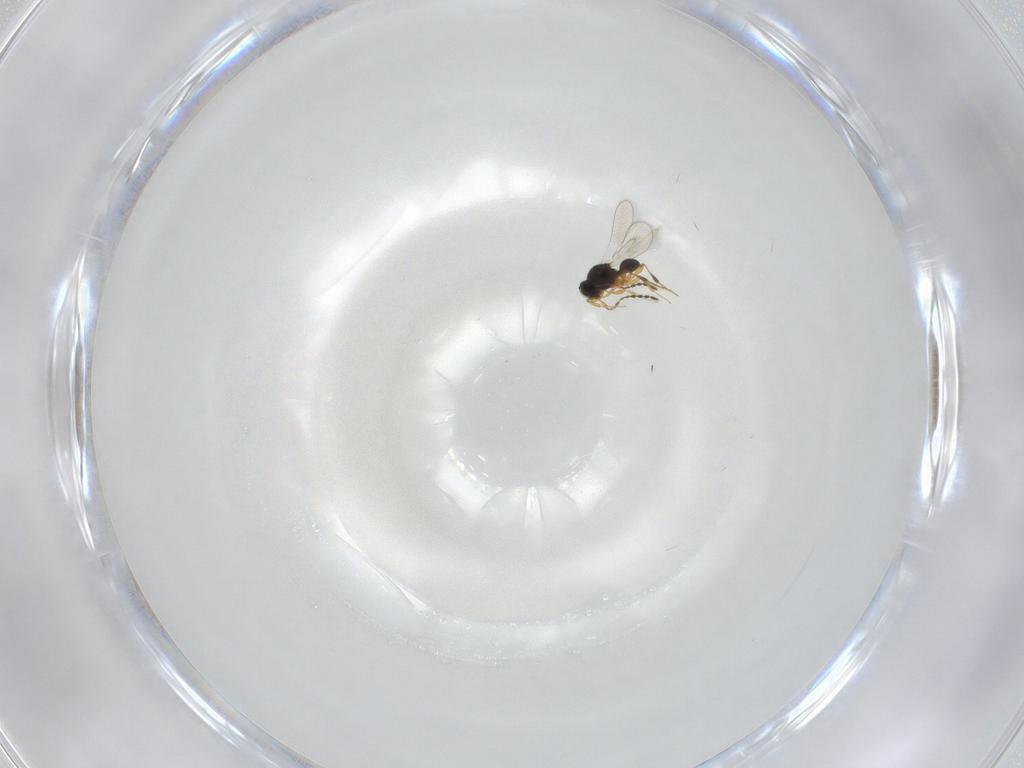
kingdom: Animalia
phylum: Arthropoda
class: Insecta
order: Hymenoptera
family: Platygastridae
